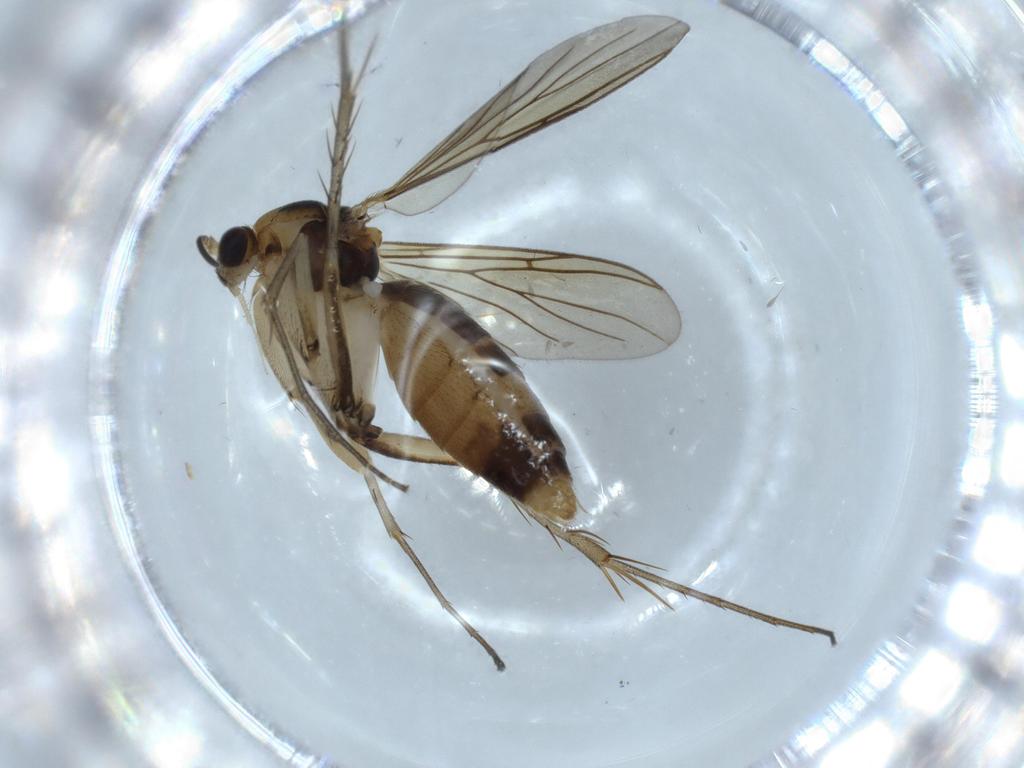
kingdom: Animalia
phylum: Arthropoda
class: Insecta
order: Diptera
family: Mycetophilidae
